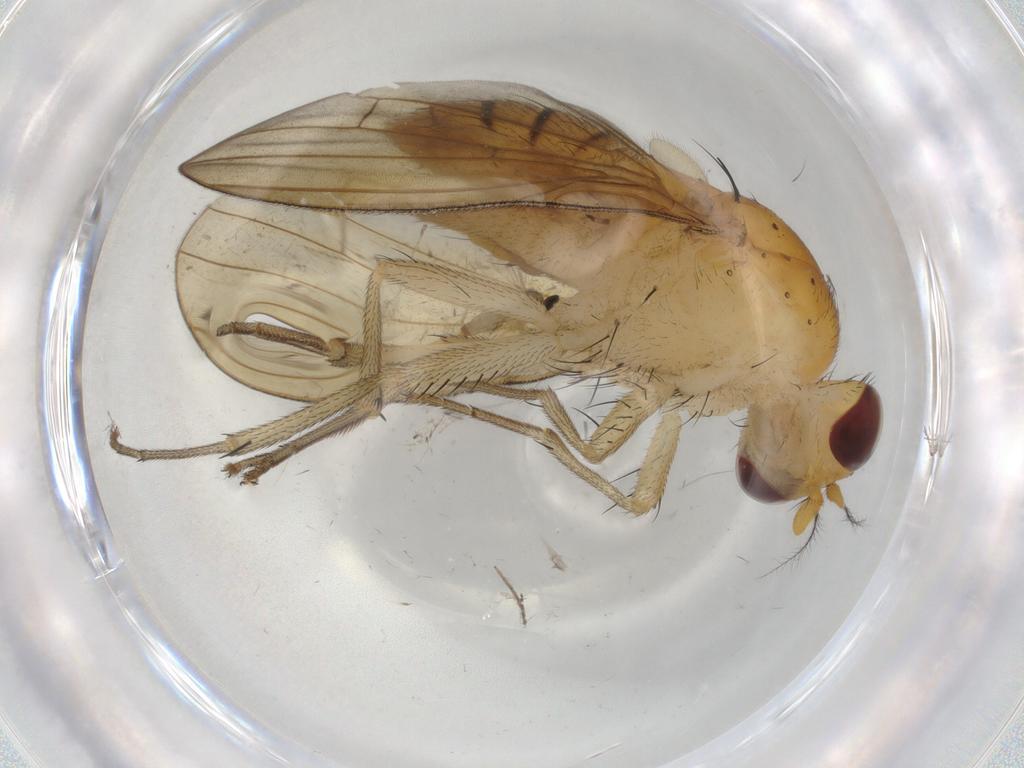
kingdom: Animalia
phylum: Arthropoda
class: Insecta
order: Diptera
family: Cecidomyiidae
